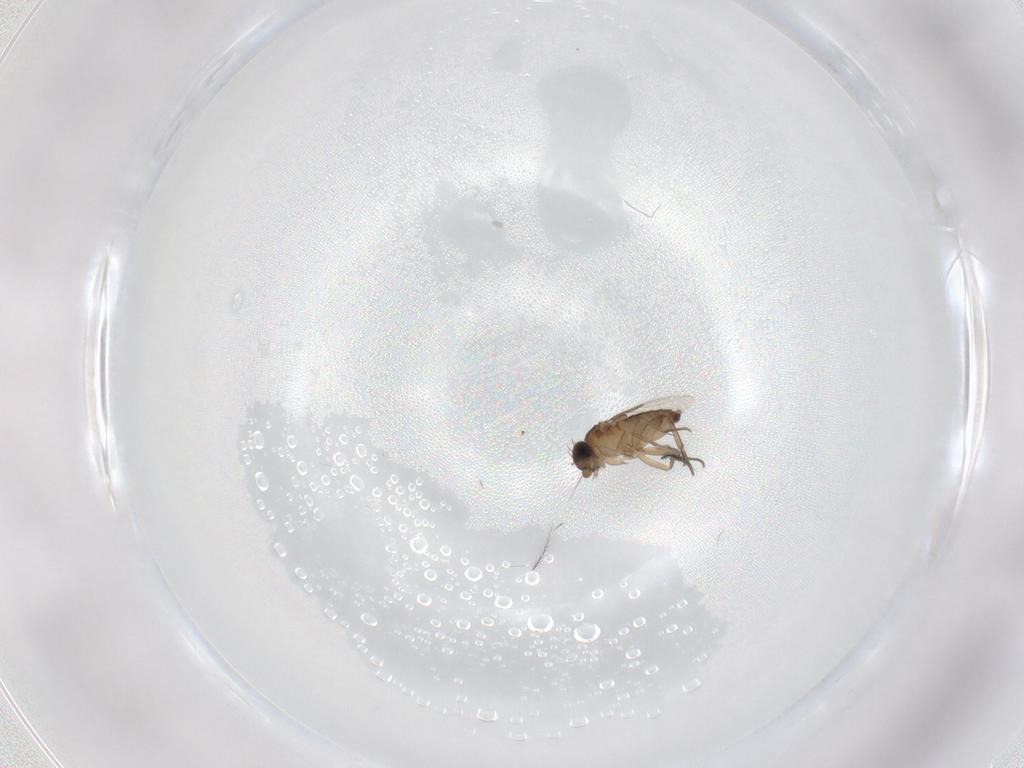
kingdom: Animalia
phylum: Arthropoda
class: Insecta
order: Diptera
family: Phoridae
